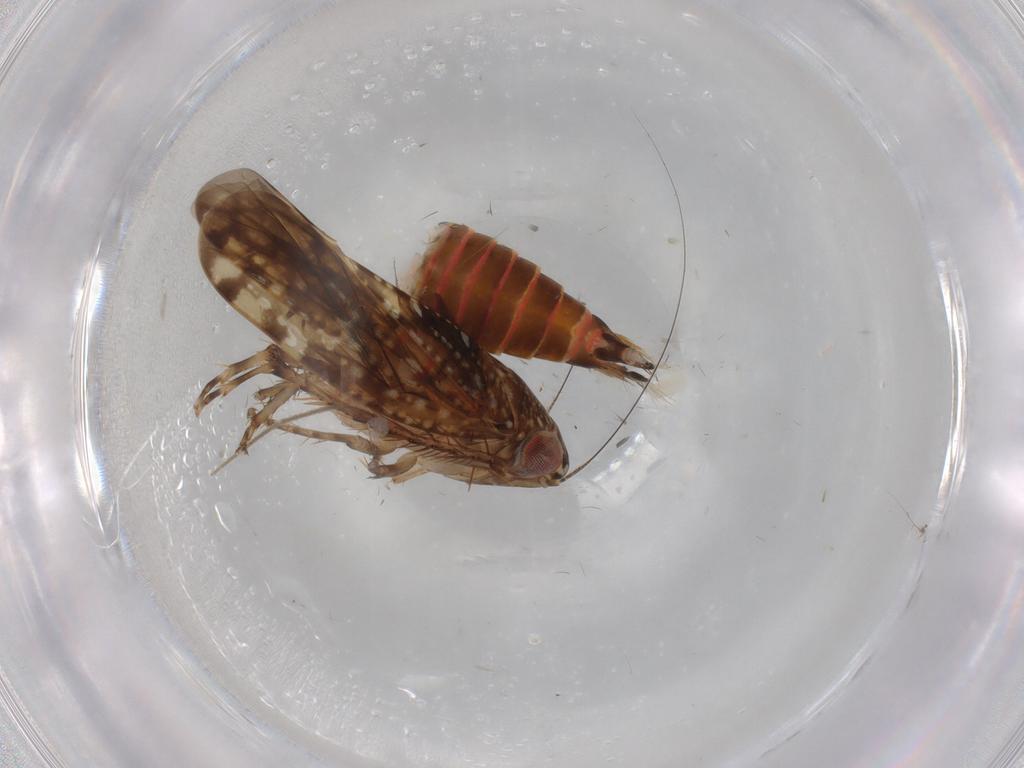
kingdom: Animalia
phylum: Arthropoda
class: Insecta
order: Hemiptera
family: Cicadellidae
